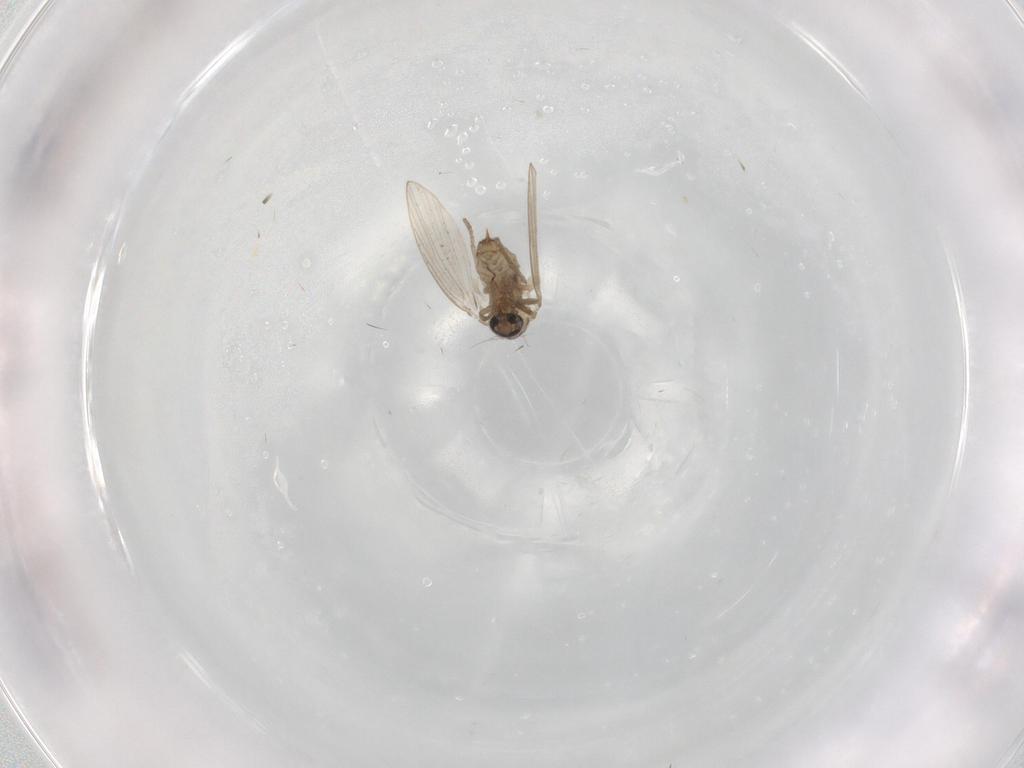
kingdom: Animalia
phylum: Arthropoda
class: Insecta
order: Diptera
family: Psychodidae
